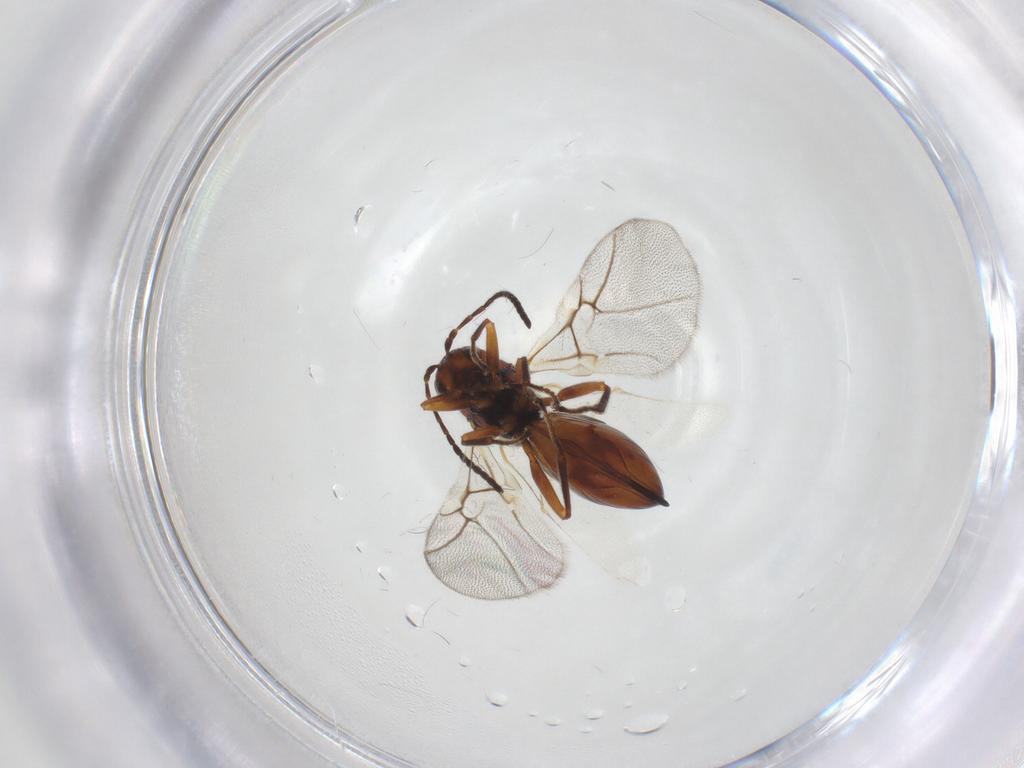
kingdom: Animalia
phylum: Arthropoda
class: Insecta
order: Hymenoptera
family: Cynipidae
